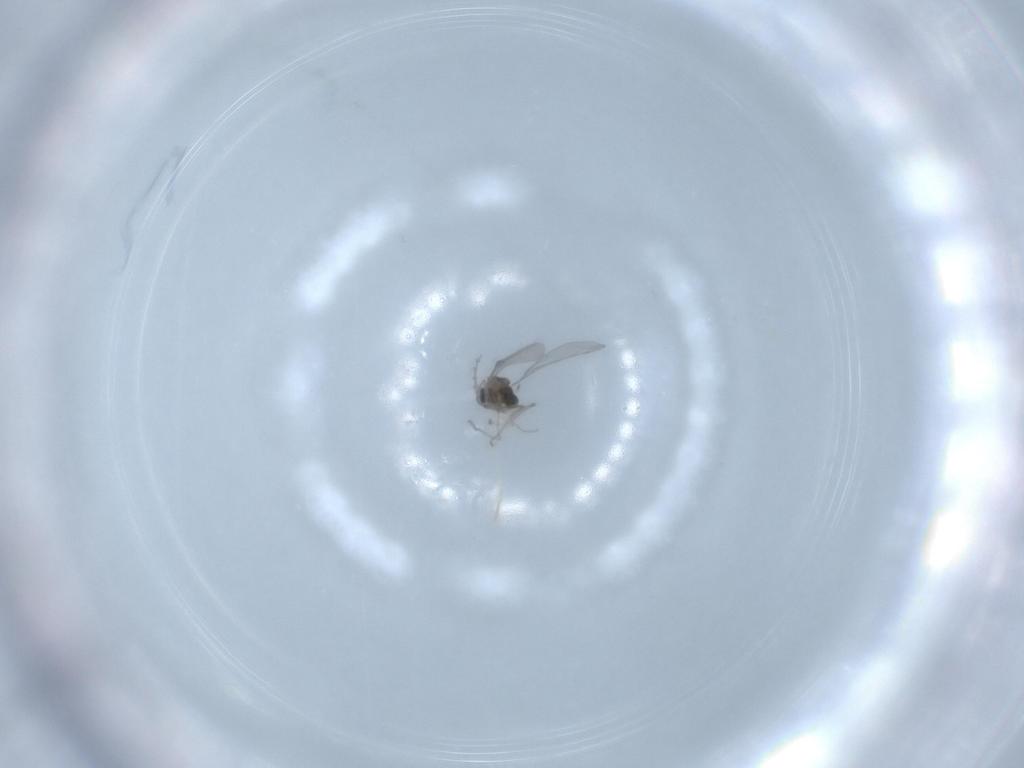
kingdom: Animalia
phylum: Arthropoda
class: Insecta
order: Diptera
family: Cecidomyiidae
